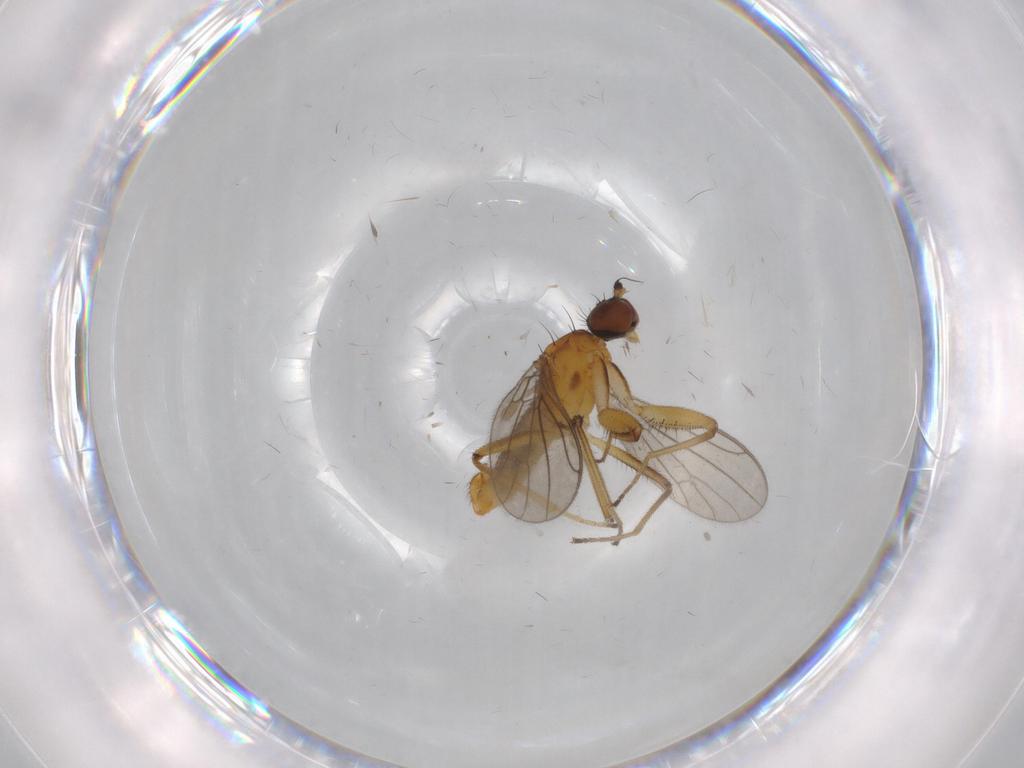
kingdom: Animalia
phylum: Arthropoda
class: Insecta
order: Diptera
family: Empididae
